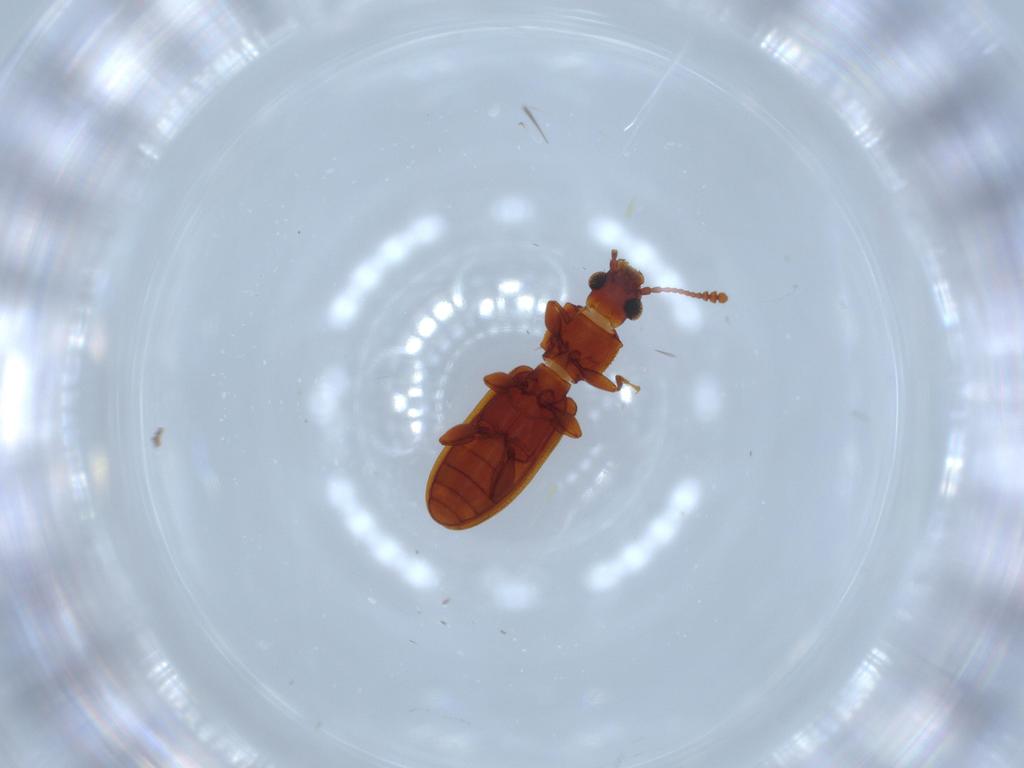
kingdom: Animalia
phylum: Arthropoda
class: Insecta
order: Coleoptera
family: Silvanidae
